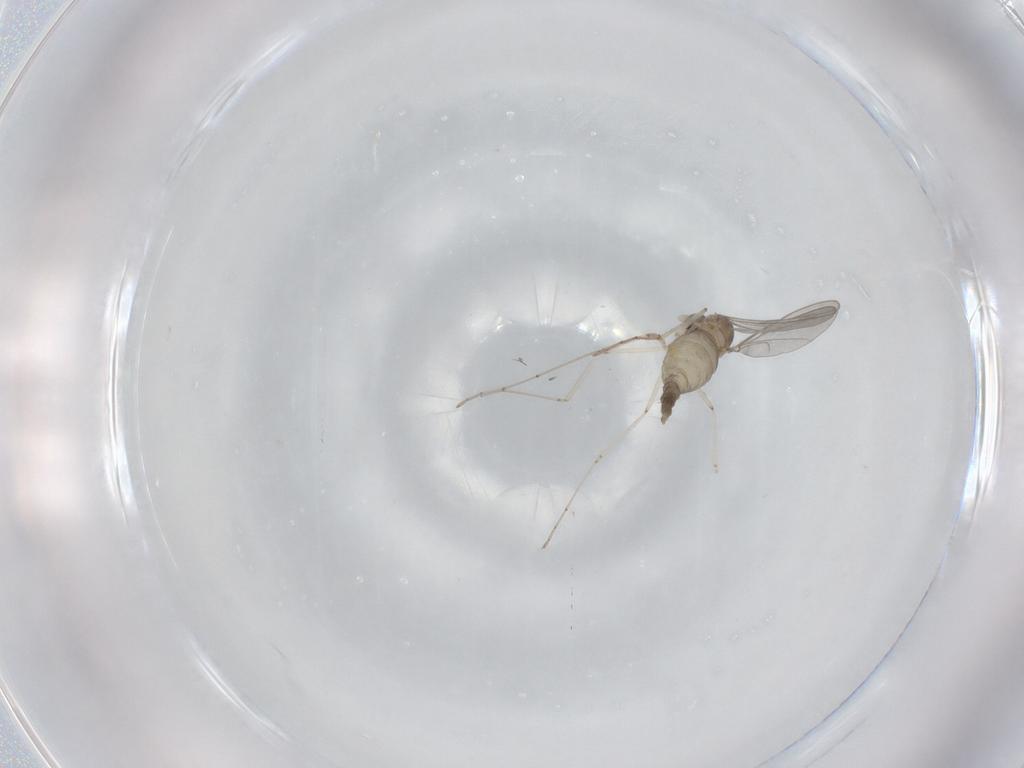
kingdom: Animalia
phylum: Arthropoda
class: Insecta
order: Diptera
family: Cecidomyiidae
